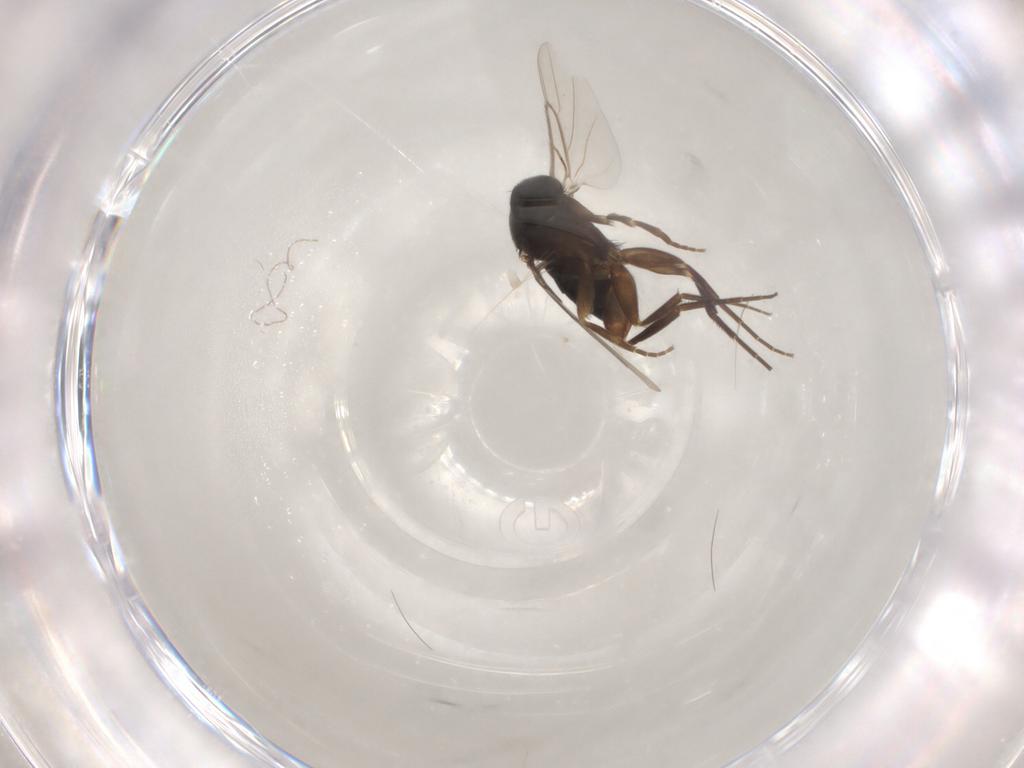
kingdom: Animalia
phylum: Arthropoda
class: Insecta
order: Diptera
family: Phoridae
